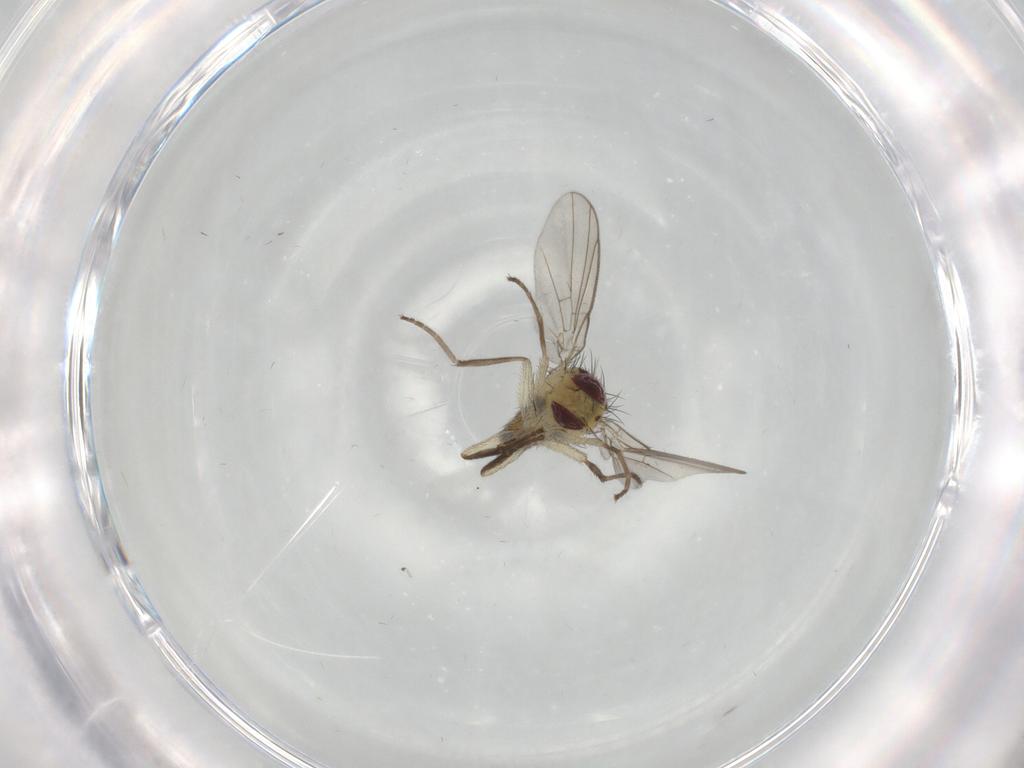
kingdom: Animalia
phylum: Arthropoda
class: Insecta
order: Diptera
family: Agromyzidae
